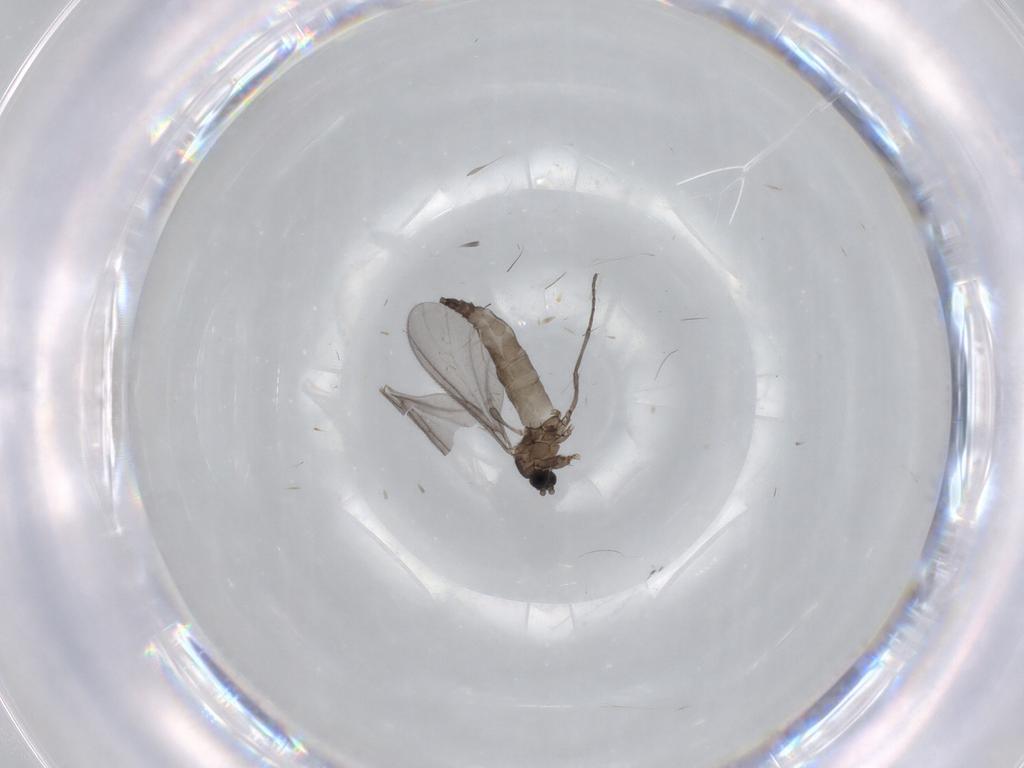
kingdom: Animalia
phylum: Arthropoda
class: Insecta
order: Diptera
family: Sciaridae
